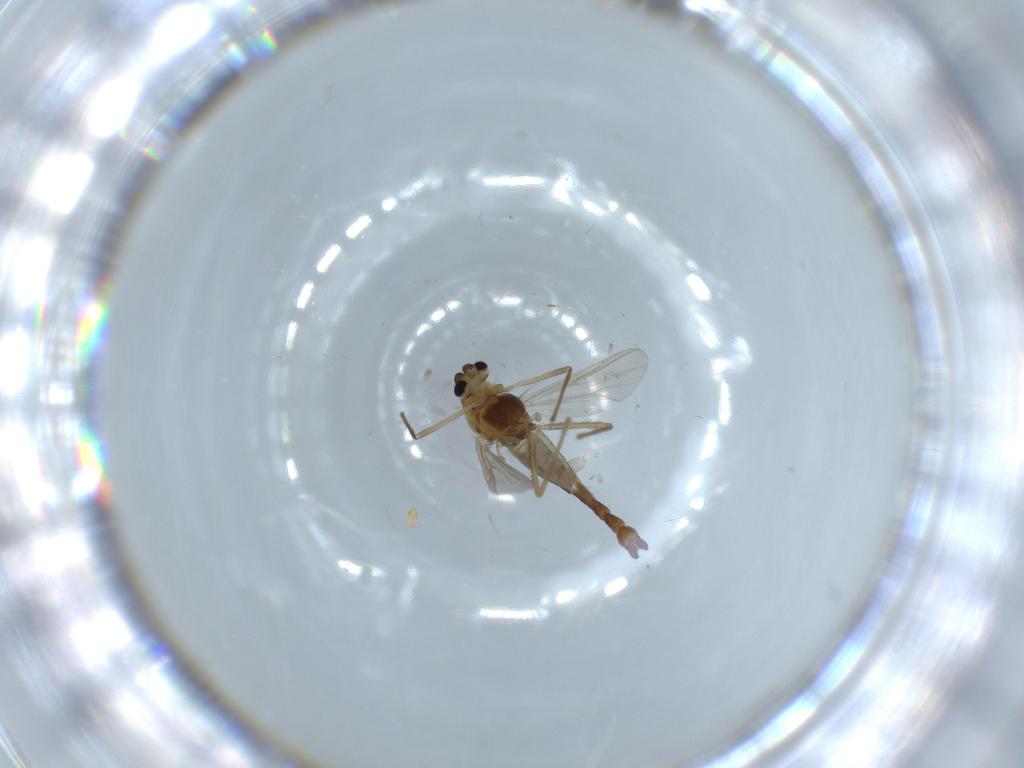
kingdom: Animalia
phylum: Arthropoda
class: Insecta
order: Diptera
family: Chironomidae
